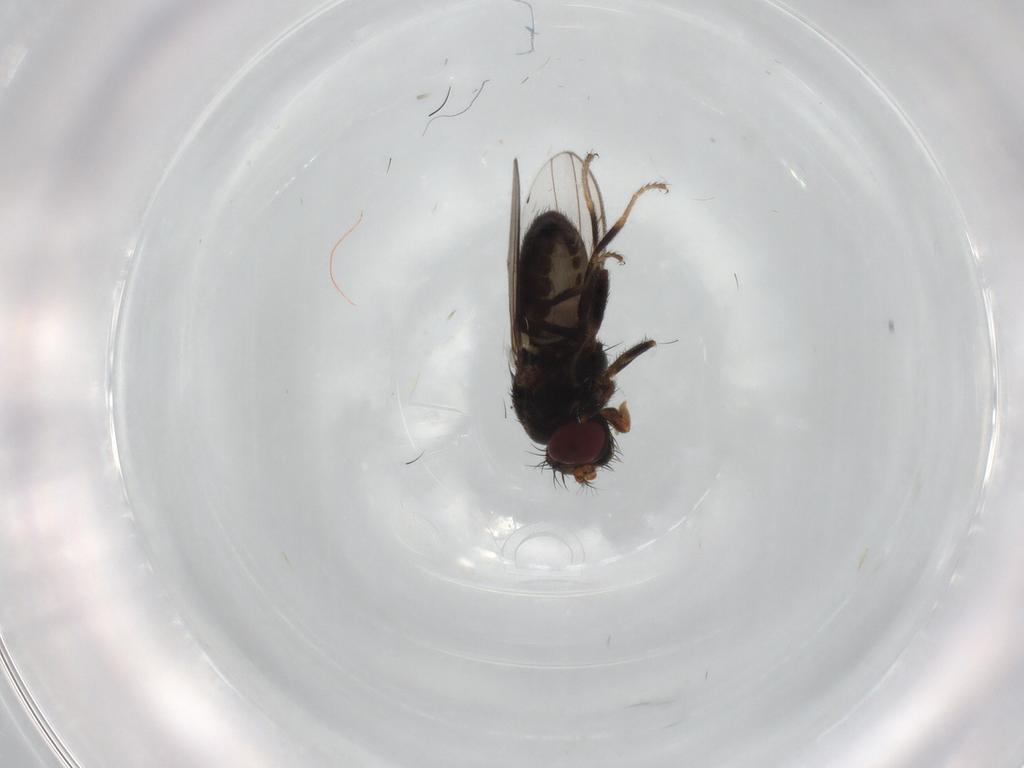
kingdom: Animalia
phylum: Arthropoda
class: Insecta
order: Diptera
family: Ephydridae
